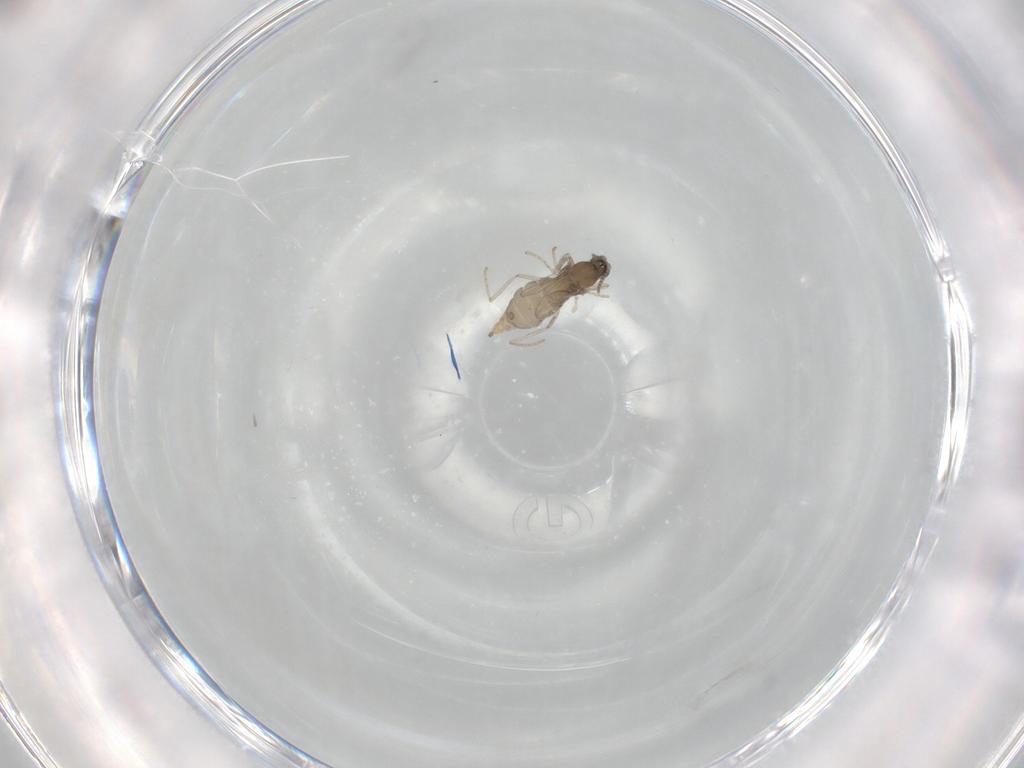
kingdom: Animalia
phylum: Arthropoda
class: Insecta
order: Diptera
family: Cecidomyiidae
